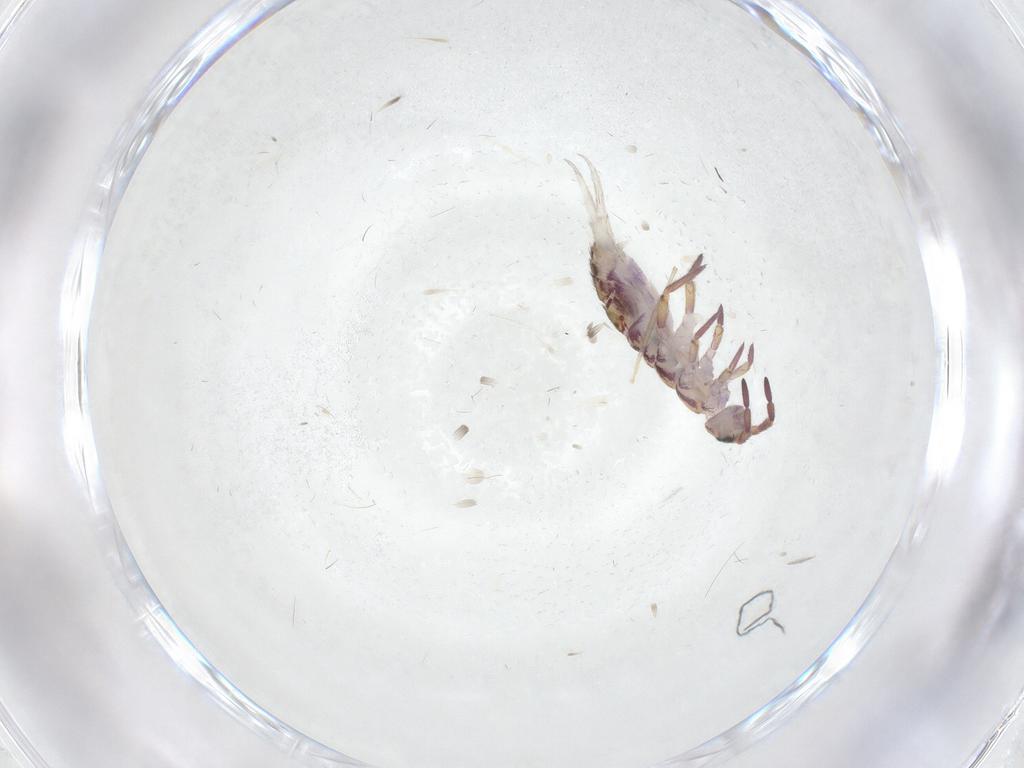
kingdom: Animalia
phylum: Arthropoda
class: Collembola
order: Entomobryomorpha
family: Isotomidae
